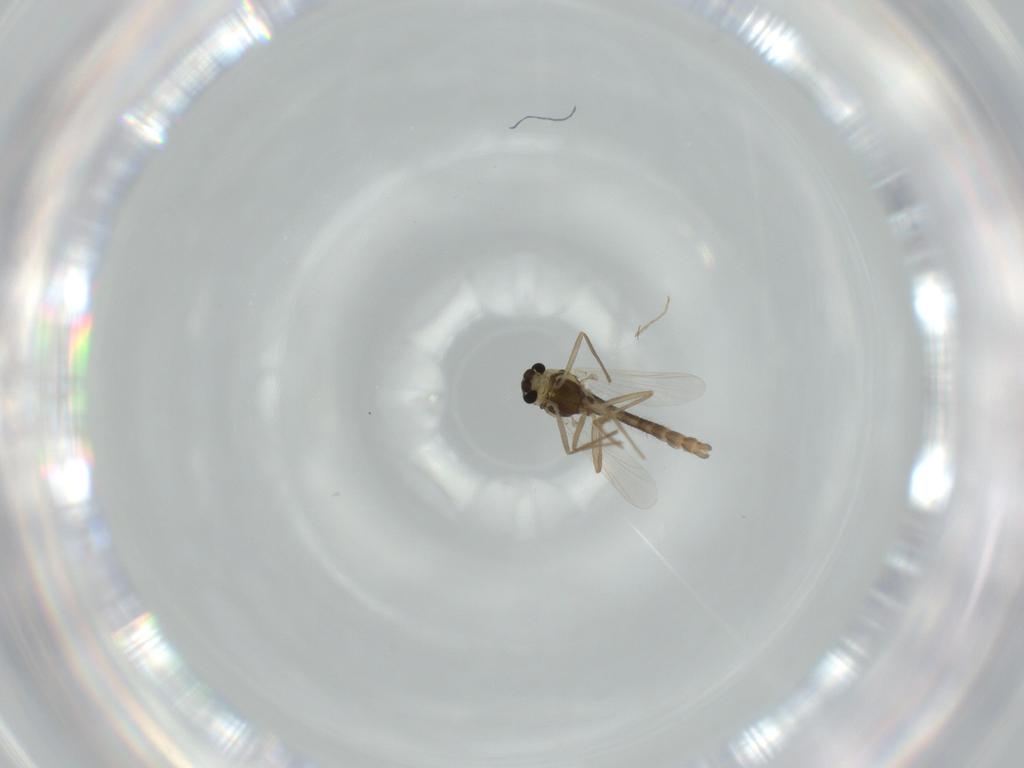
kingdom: Animalia
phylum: Arthropoda
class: Insecta
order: Diptera
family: Chironomidae
